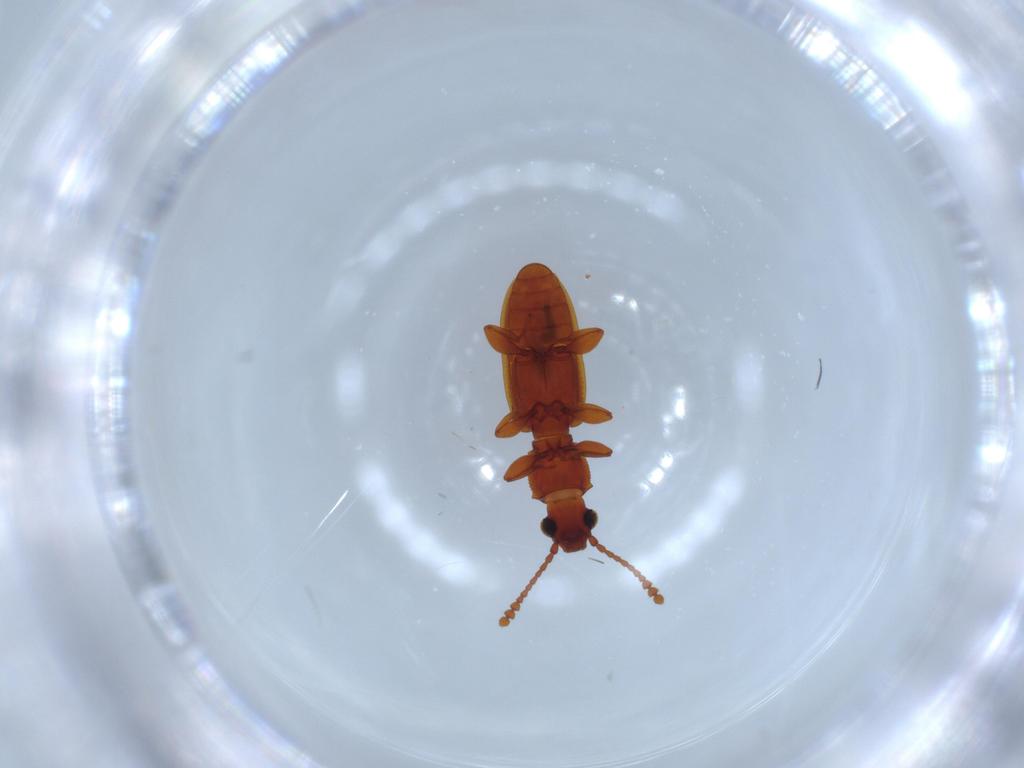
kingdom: Animalia
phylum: Arthropoda
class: Insecta
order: Coleoptera
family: Silvanidae
